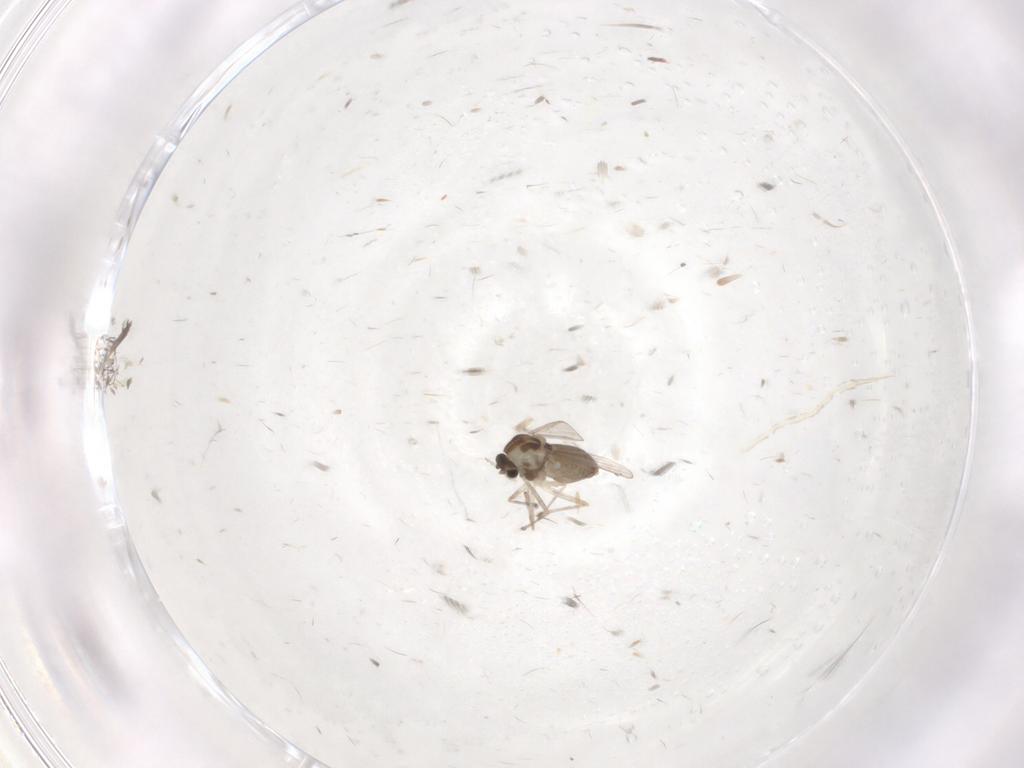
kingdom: Animalia
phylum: Arthropoda
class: Insecta
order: Diptera
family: Chironomidae
